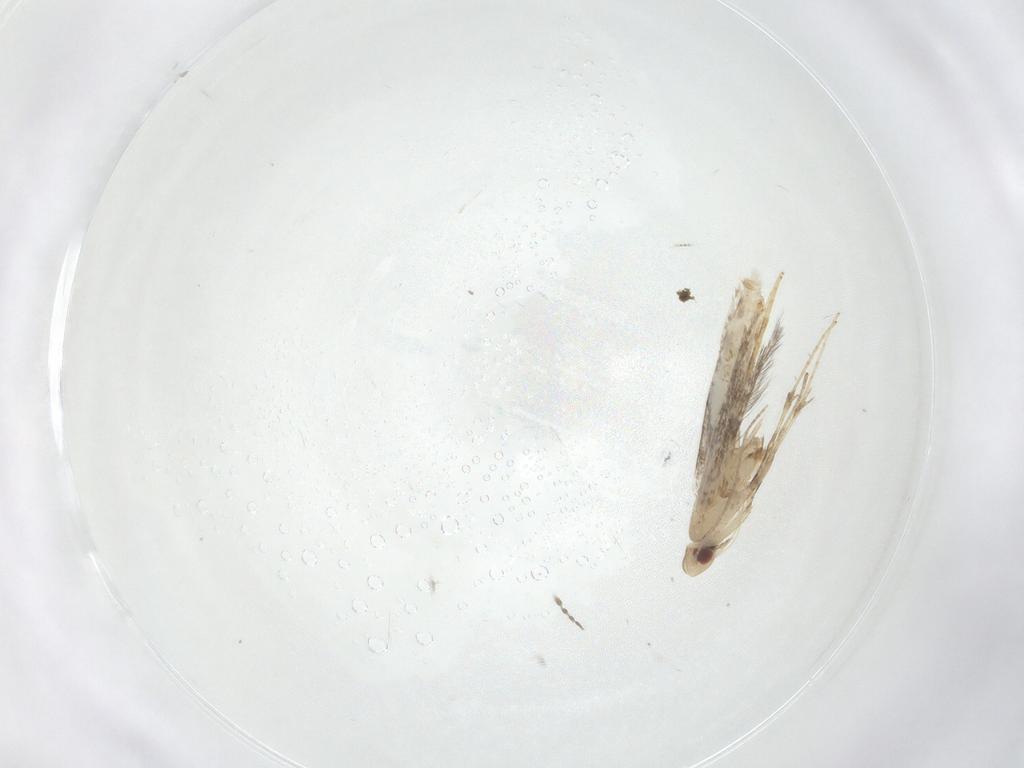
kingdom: Animalia
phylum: Arthropoda
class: Insecta
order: Lepidoptera
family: Gracillariidae
